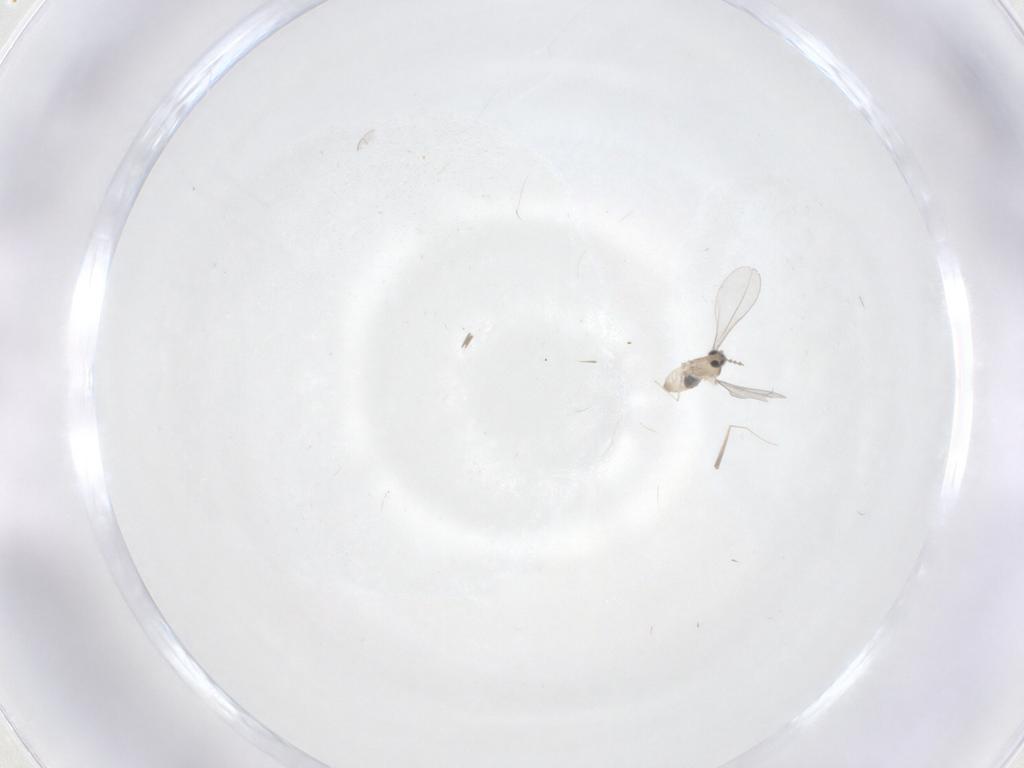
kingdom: Animalia
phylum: Arthropoda
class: Insecta
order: Diptera
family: Cecidomyiidae
